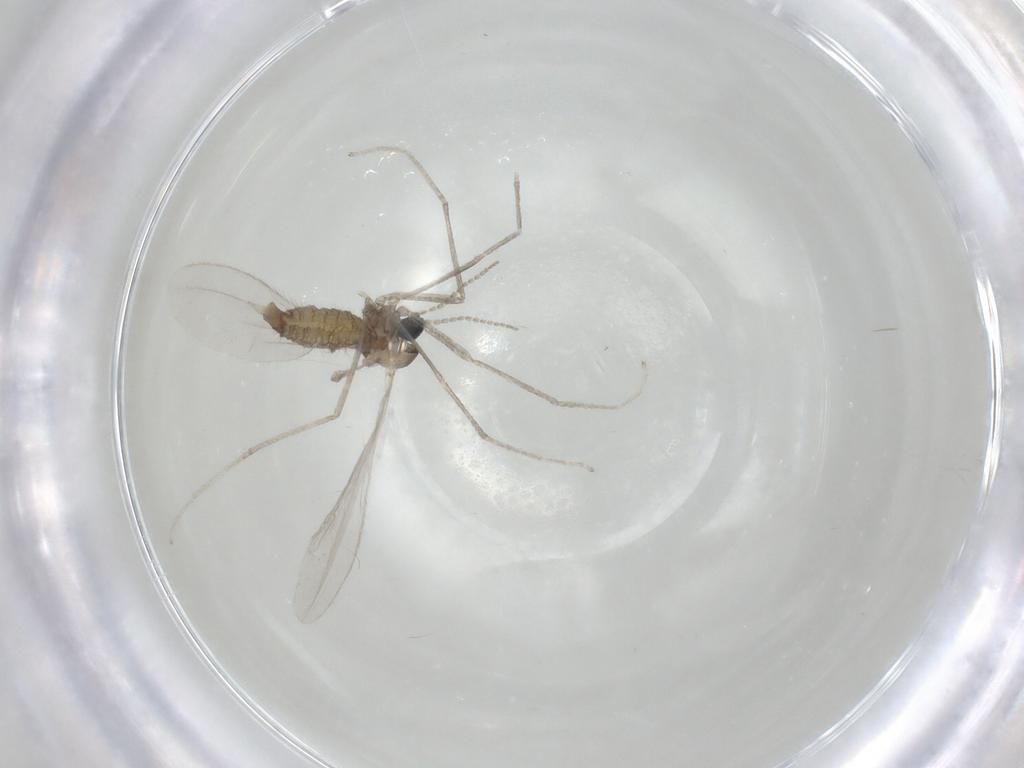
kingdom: Animalia
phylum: Arthropoda
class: Insecta
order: Diptera
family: Cecidomyiidae
